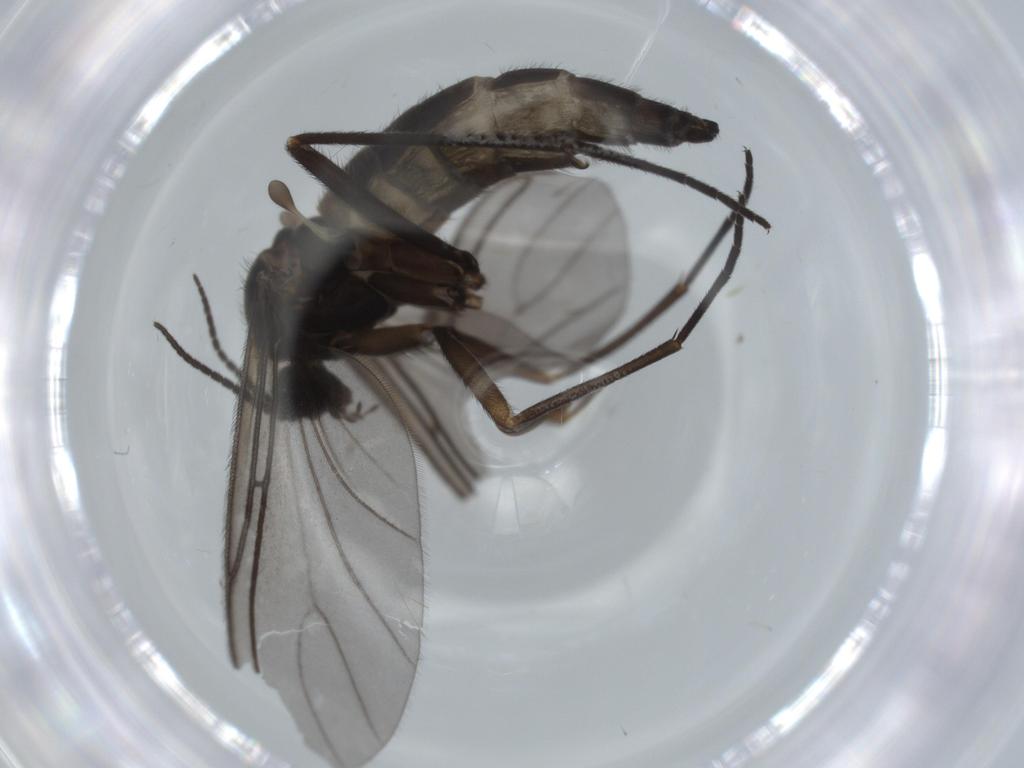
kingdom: Animalia
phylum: Arthropoda
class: Insecta
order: Diptera
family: Sciaridae
